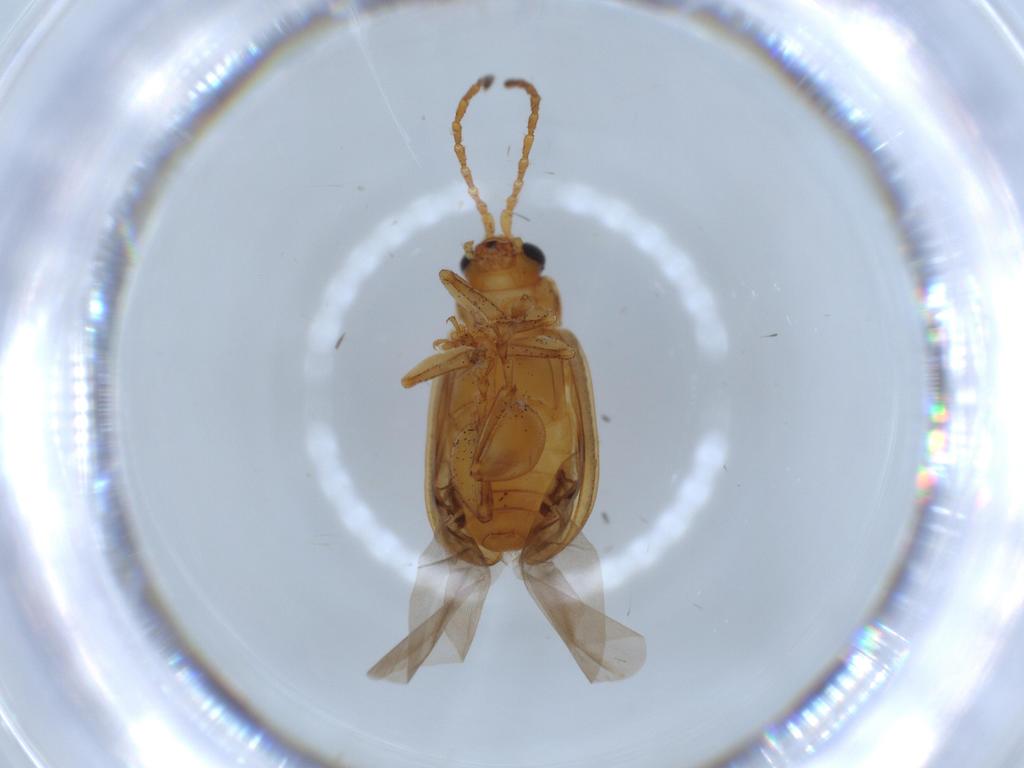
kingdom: Animalia
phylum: Arthropoda
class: Insecta
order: Coleoptera
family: Chrysomelidae
